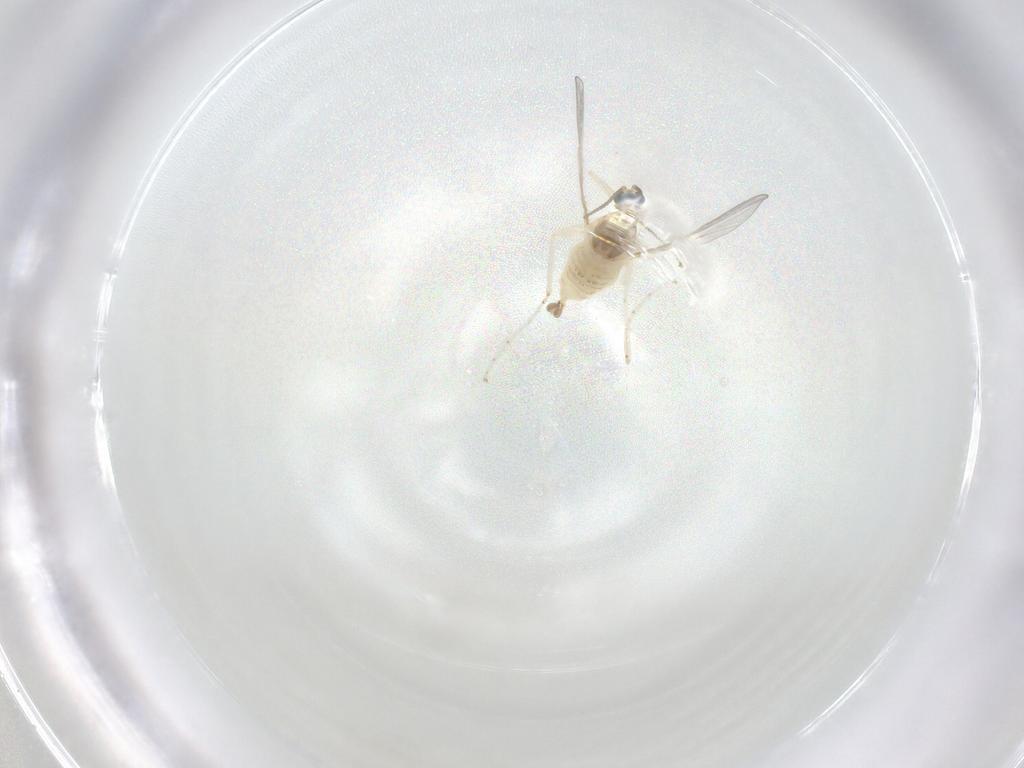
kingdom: Animalia
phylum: Arthropoda
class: Insecta
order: Diptera
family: Cecidomyiidae
